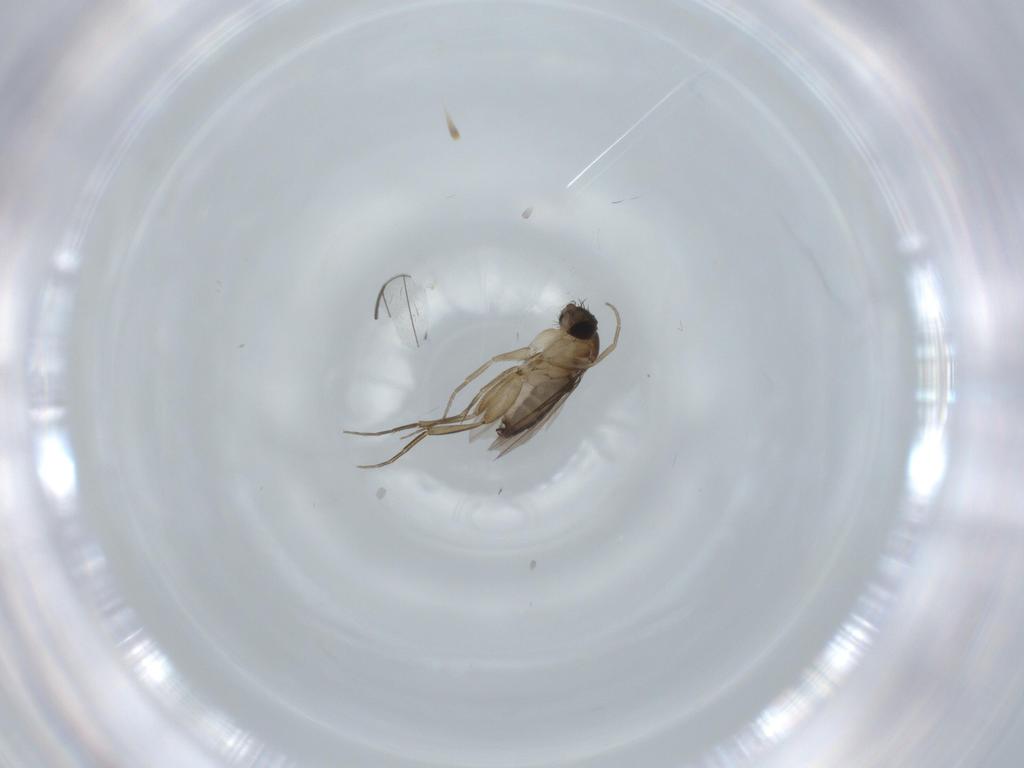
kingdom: Animalia
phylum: Arthropoda
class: Insecta
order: Diptera
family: Phoridae
